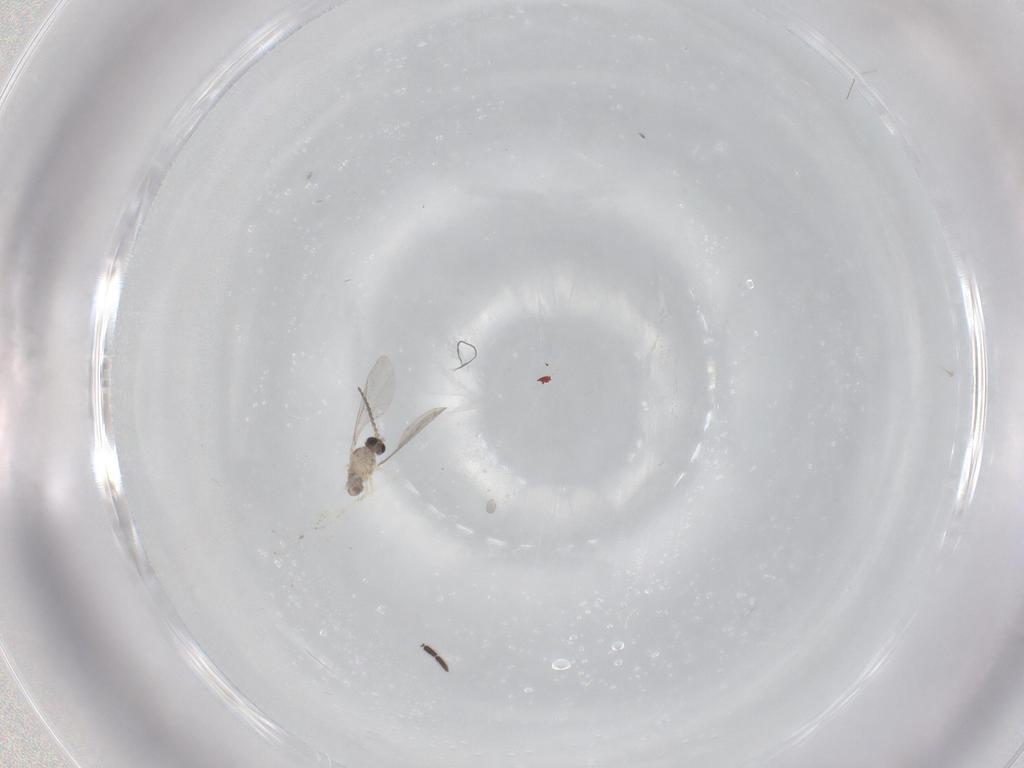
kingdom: Animalia
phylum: Arthropoda
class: Insecta
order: Diptera
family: Cecidomyiidae
